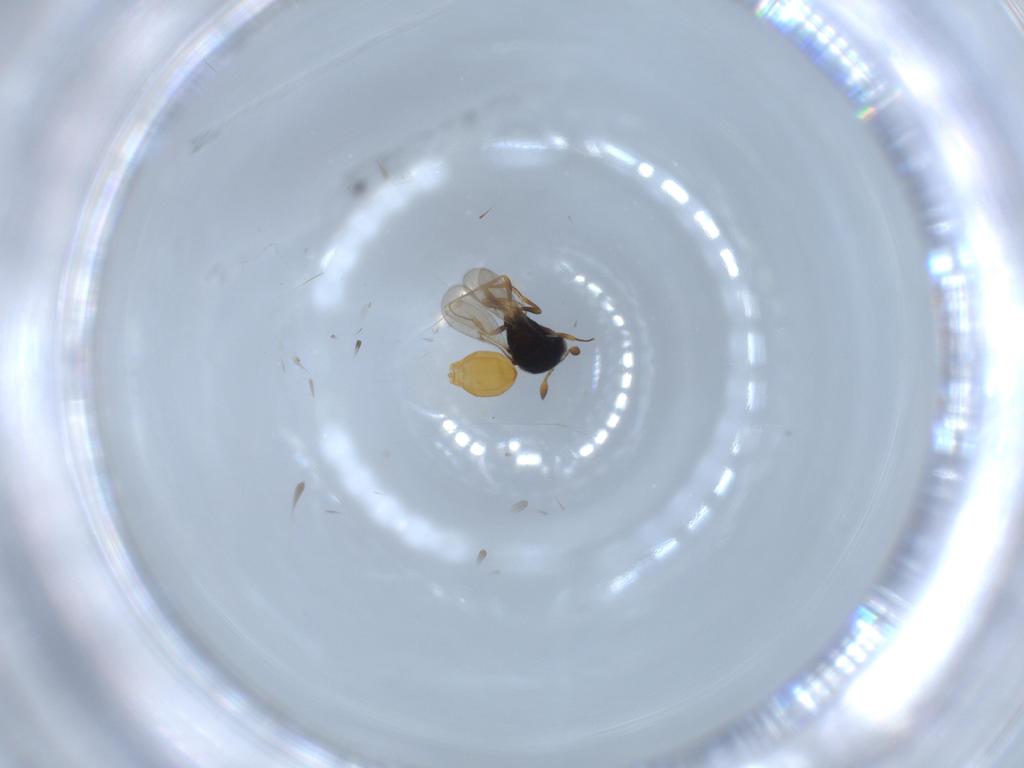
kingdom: Animalia
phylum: Arthropoda
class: Insecta
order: Hymenoptera
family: Scelionidae
